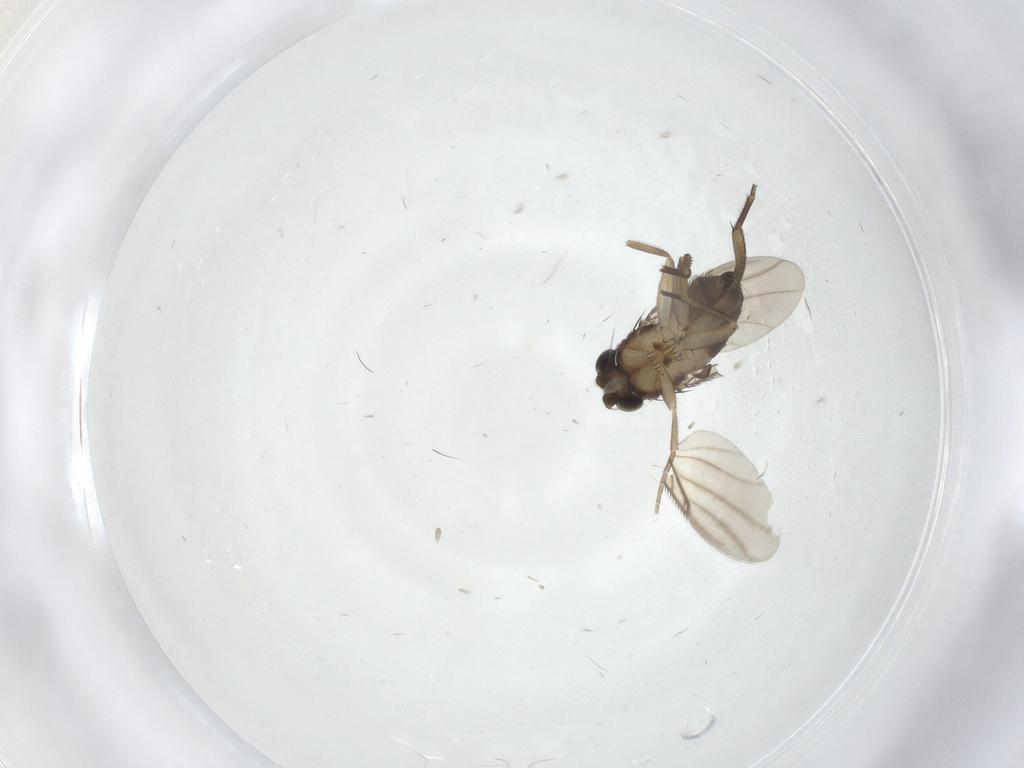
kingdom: Animalia
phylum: Arthropoda
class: Insecta
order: Diptera
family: Phoridae
